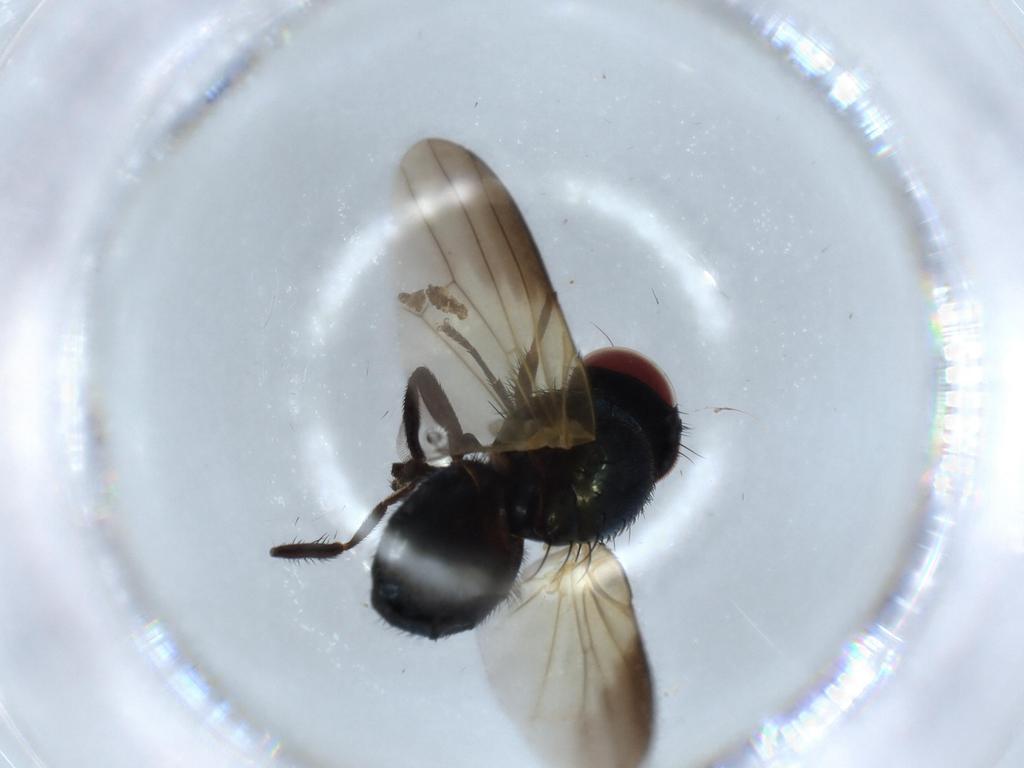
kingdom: Animalia
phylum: Arthropoda
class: Insecta
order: Diptera
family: Lonchaeidae
